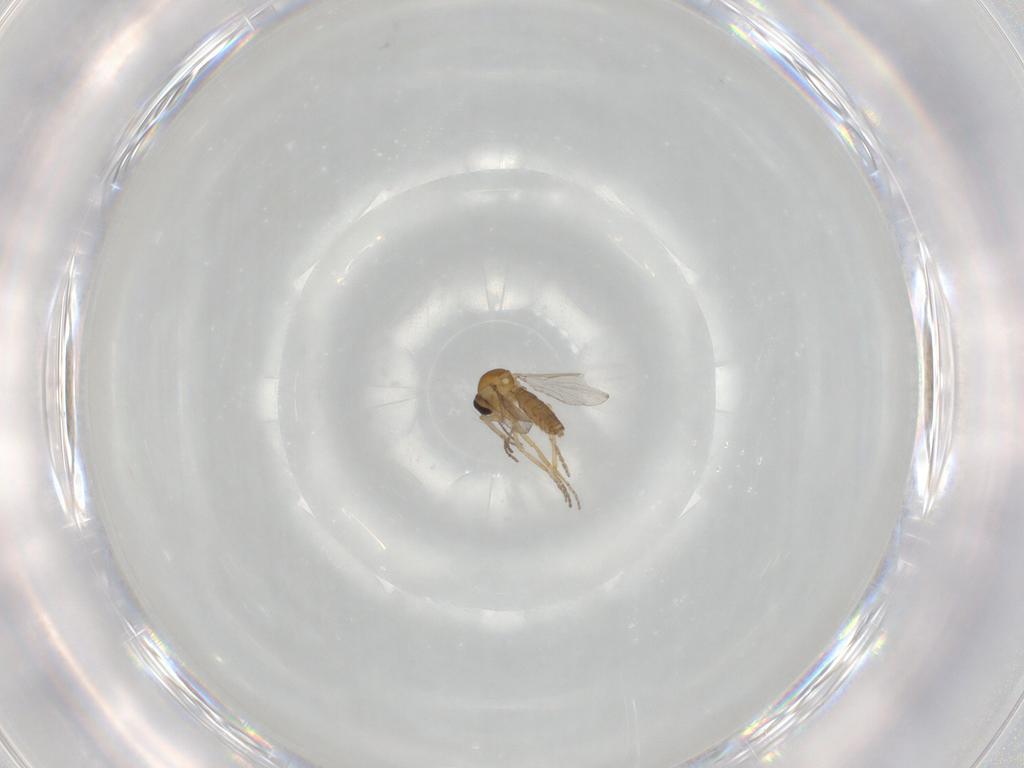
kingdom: Animalia
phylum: Arthropoda
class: Insecta
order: Diptera
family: Ceratopogonidae
